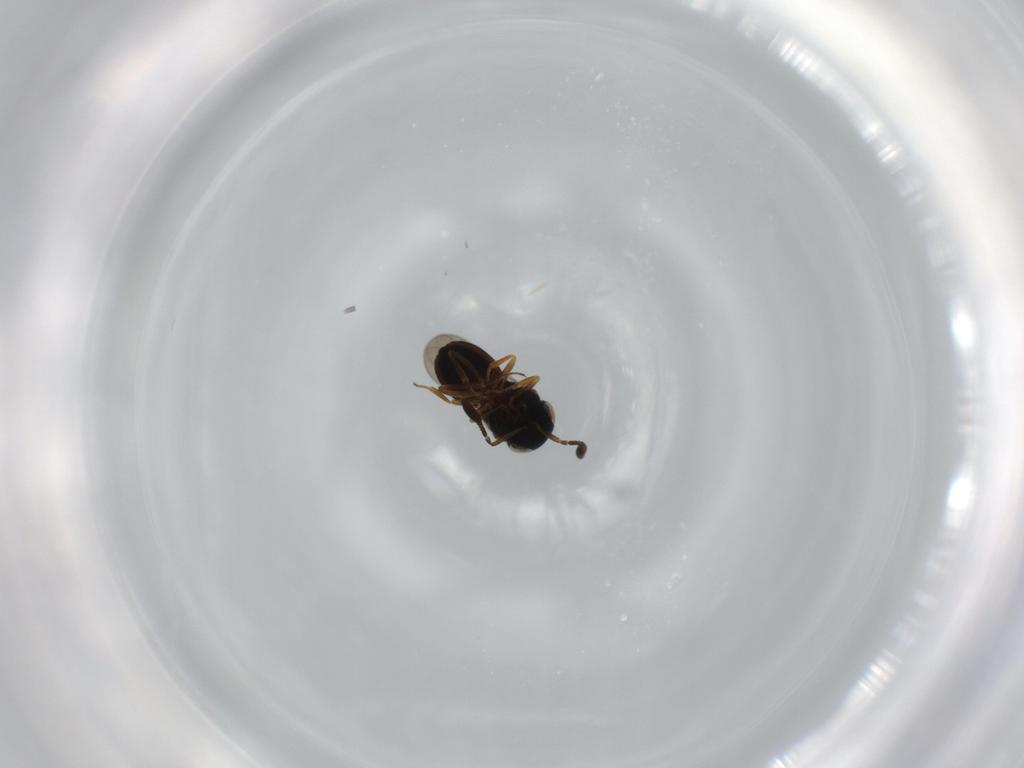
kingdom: Animalia
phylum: Arthropoda
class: Insecta
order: Hymenoptera
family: Scelionidae
